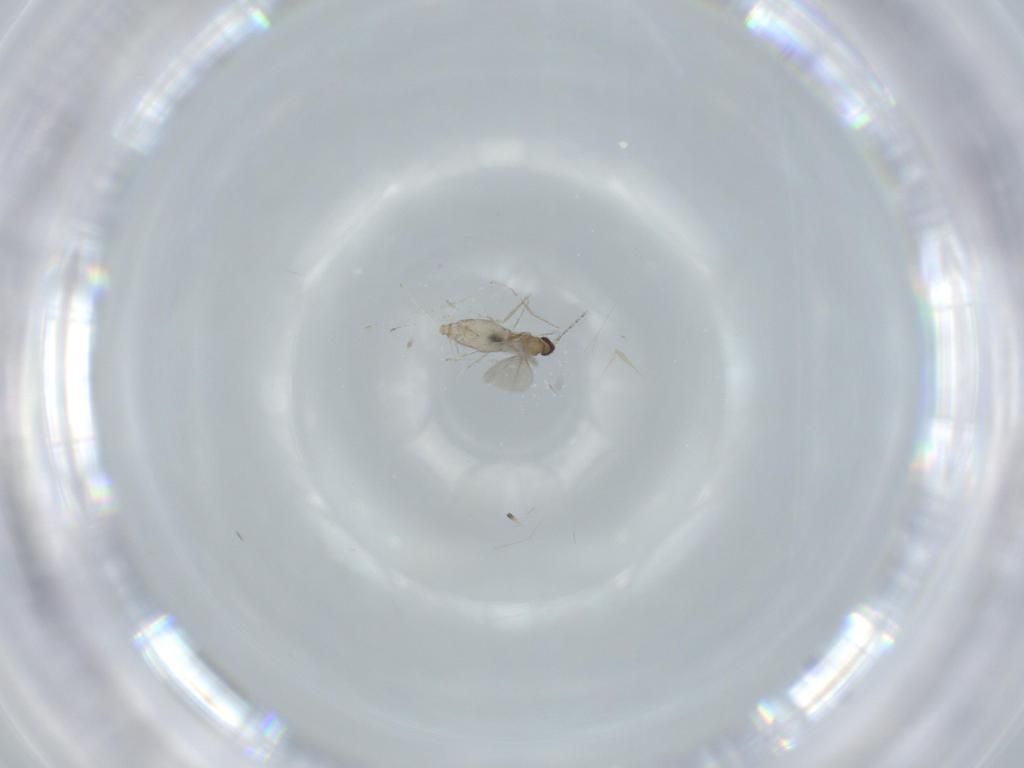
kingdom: Animalia
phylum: Arthropoda
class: Insecta
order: Diptera
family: Cecidomyiidae
